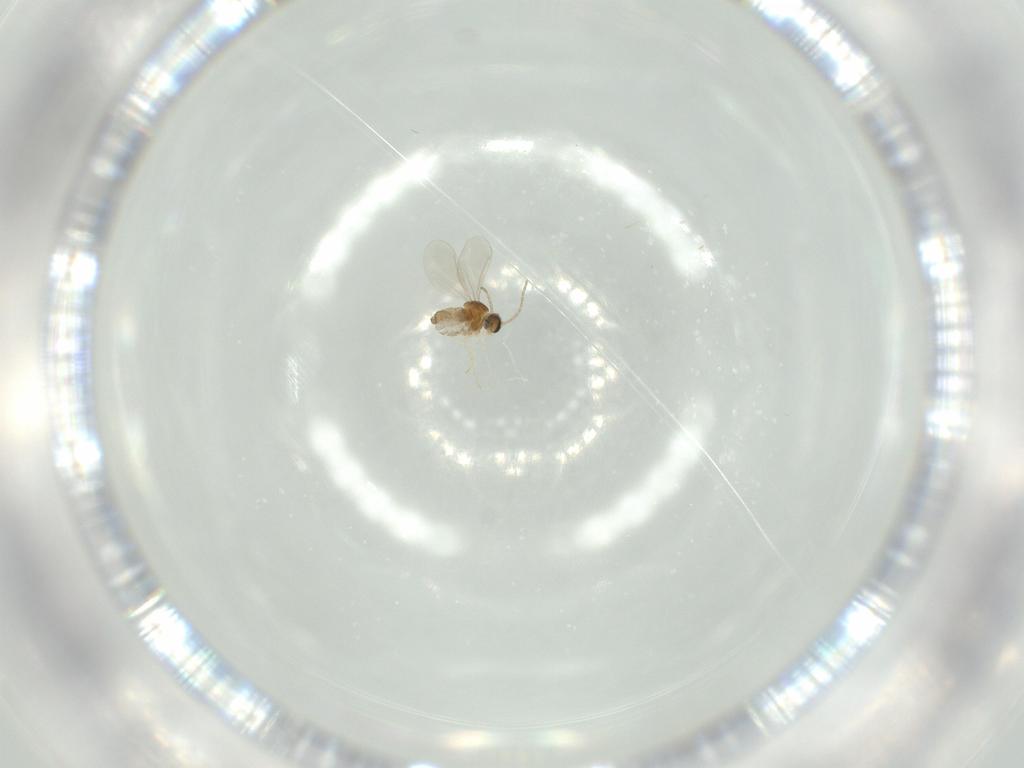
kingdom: Animalia
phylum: Arthropoda
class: Insecta
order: Diptera
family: Cecidomyiidae
